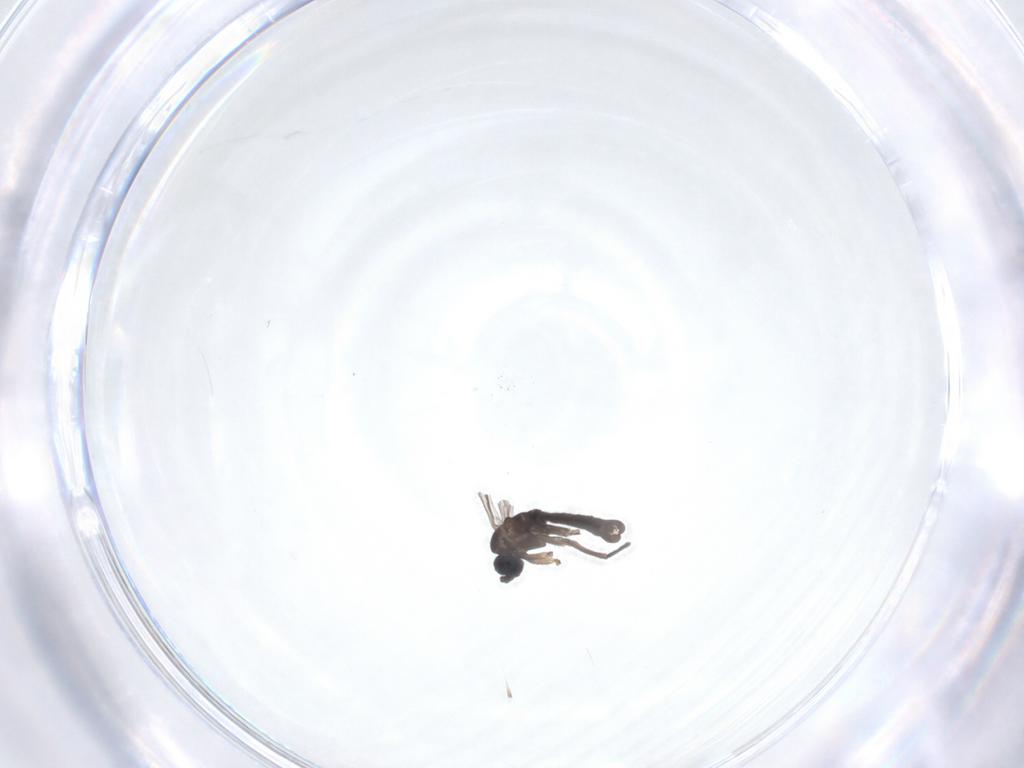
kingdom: Animalia
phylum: Arthropoda
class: Insecta
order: Diptera
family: Sciaridae
